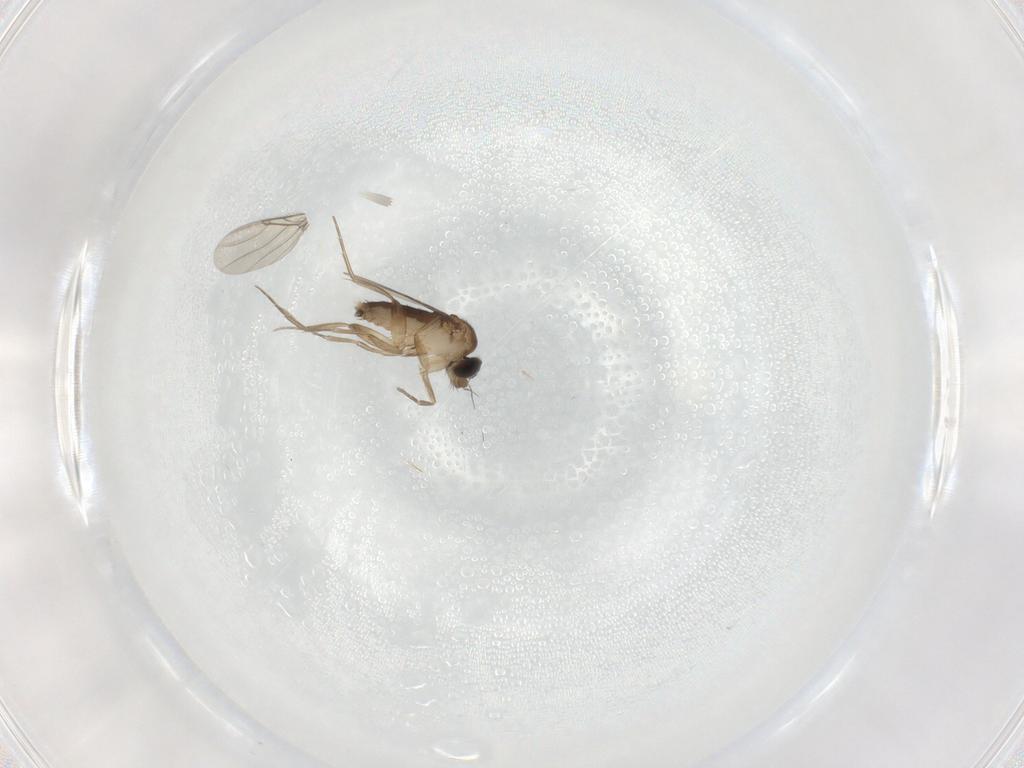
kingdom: Animalia
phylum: Arthropoda
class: Insecta
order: Diptera
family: Phoridae
